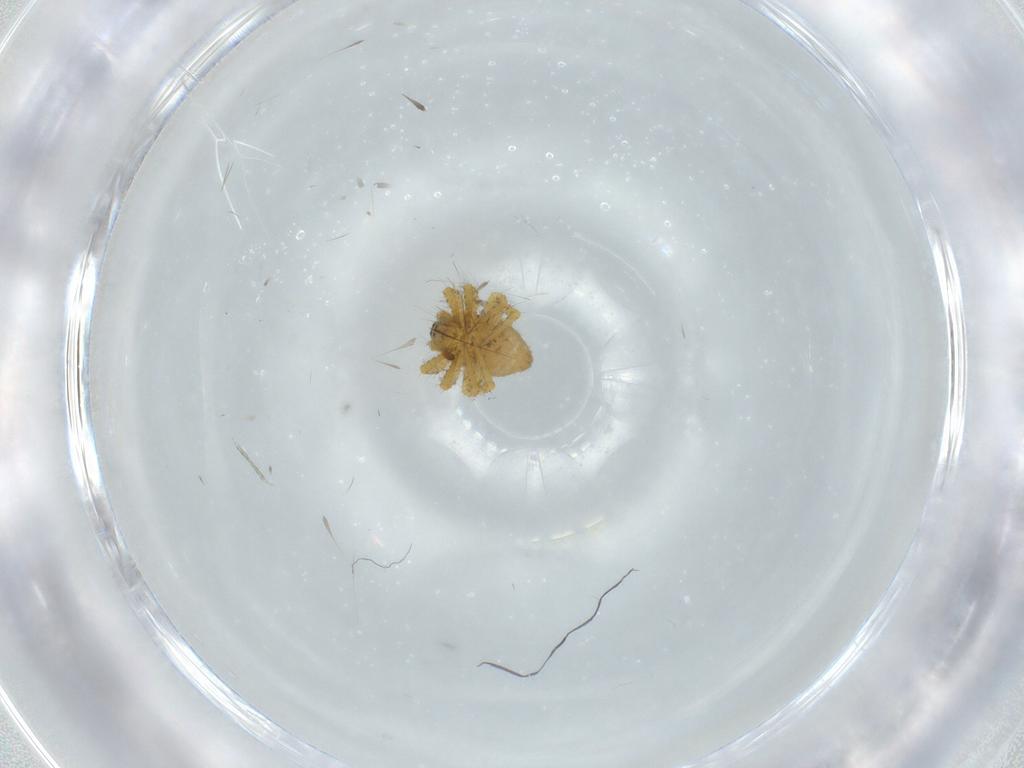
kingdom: Animalia
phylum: Arthropoda
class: Arachnida
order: Araneae
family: Theridiidae
